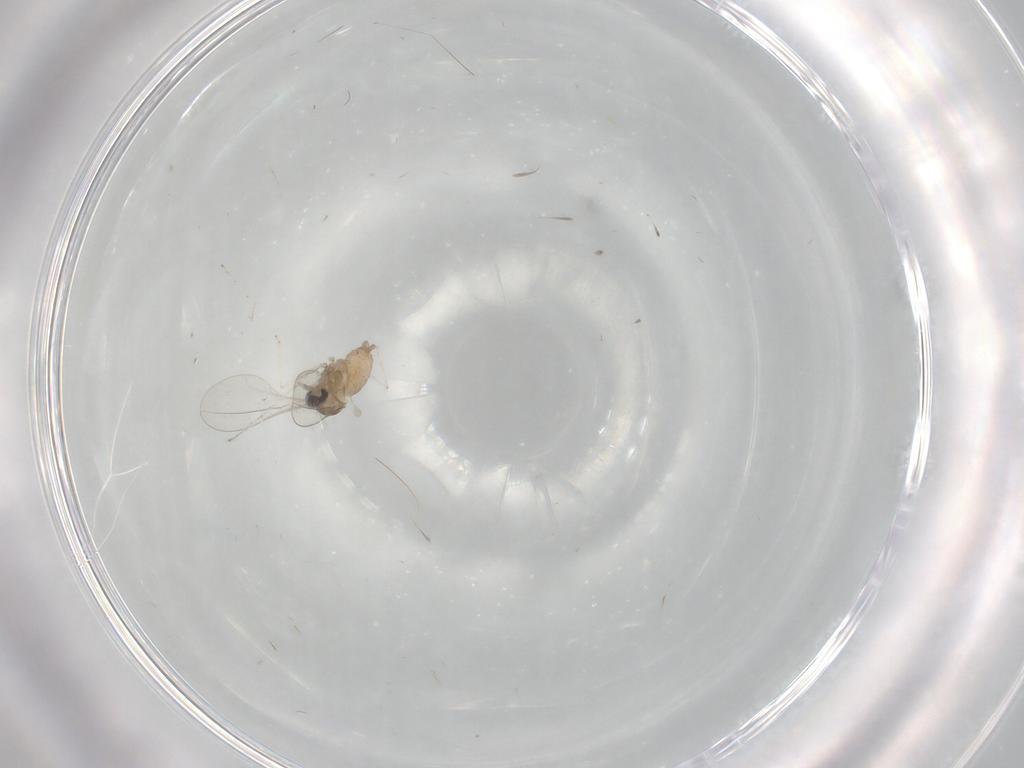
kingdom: Animalia
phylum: Arthropoda
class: Insecta
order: Diptera
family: Cecidomyiidae
